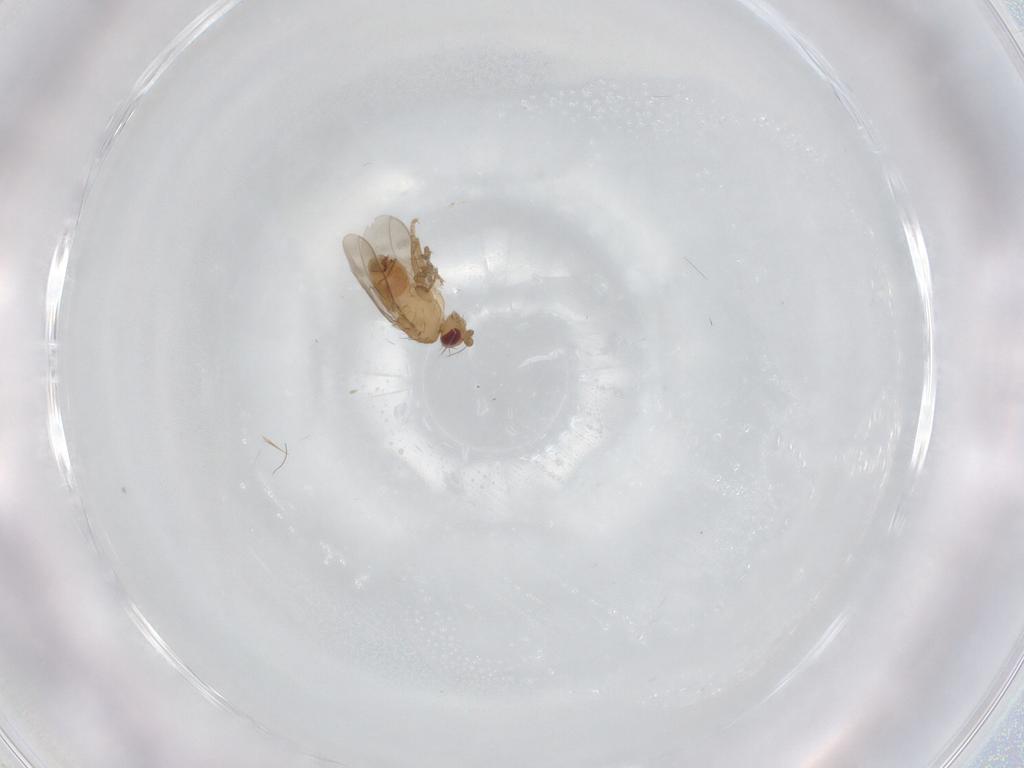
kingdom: Animalia
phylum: Arthropoda
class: Insecta
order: Diptera
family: Sphaeroceridae
